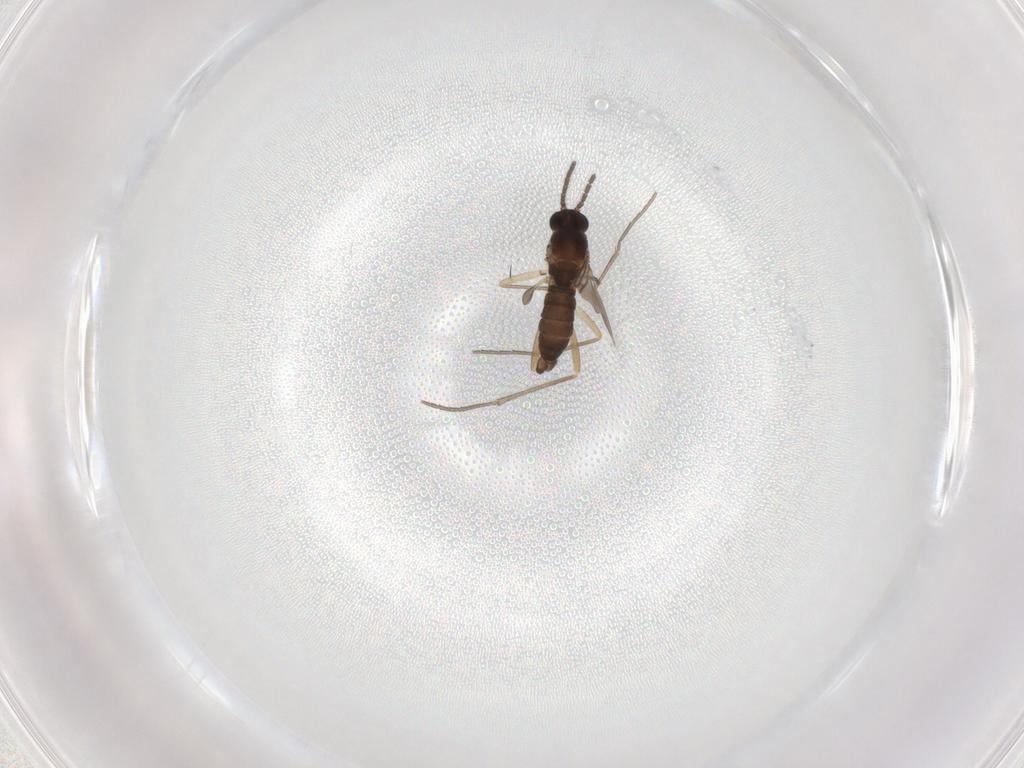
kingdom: Animalia
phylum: Arthropoda
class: Insecta
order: Diptera
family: Sciaridae
